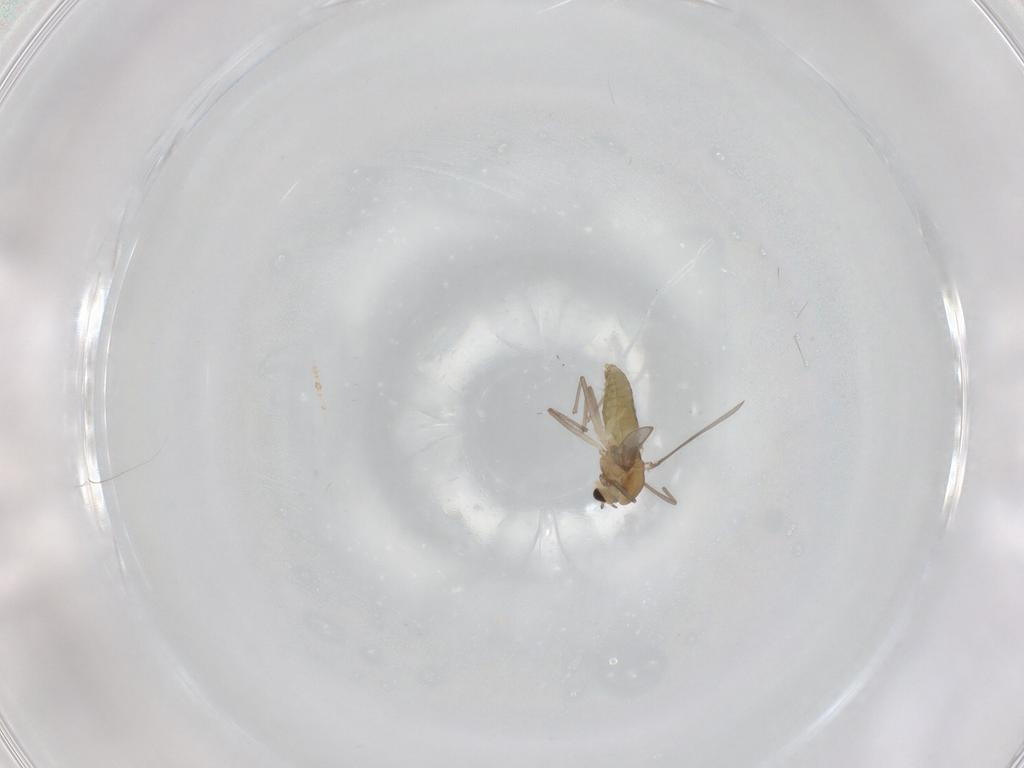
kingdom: Animalia
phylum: Arthropoda
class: Insecta
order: Diptera
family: Chironomidae
